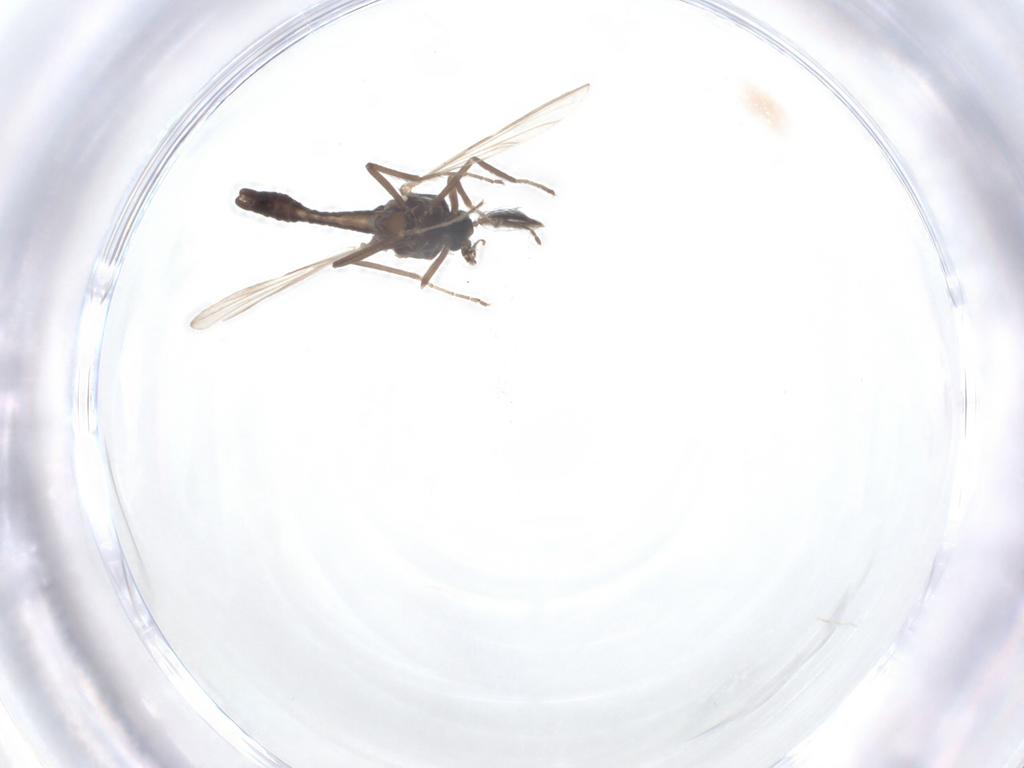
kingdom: Animalia
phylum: Arthropoda
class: Insecta
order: Diptera
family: Ceratopogonidae
